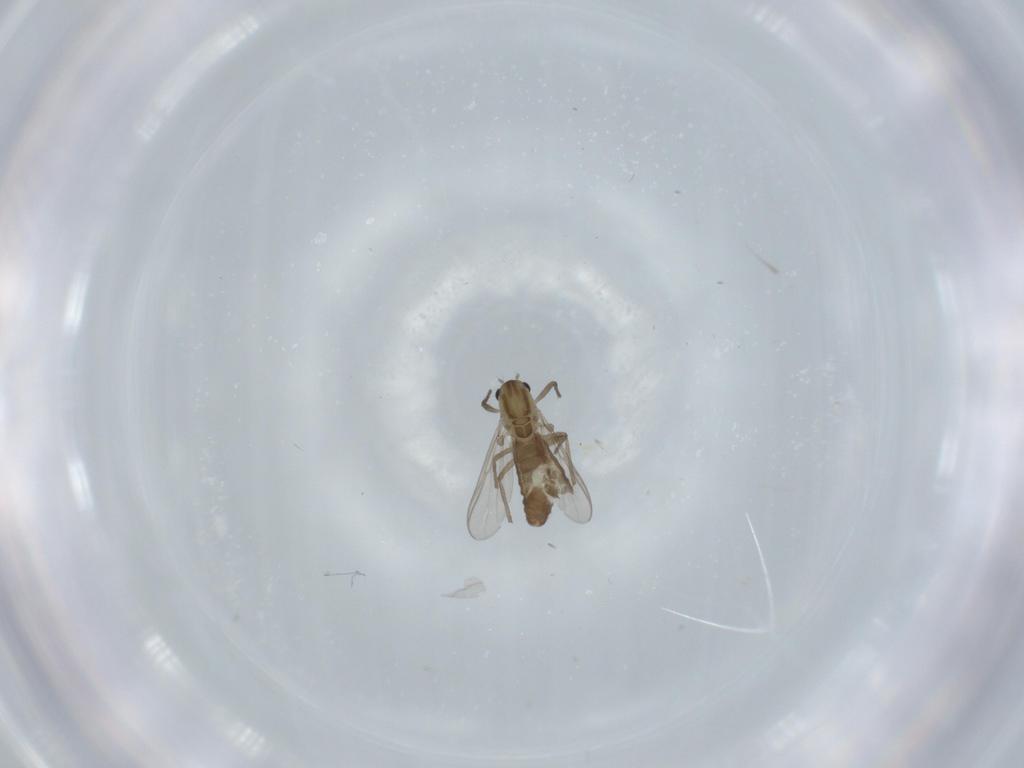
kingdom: Animalia
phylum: Arthropoda
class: Insecta
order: Diptera
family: Chironomidae
